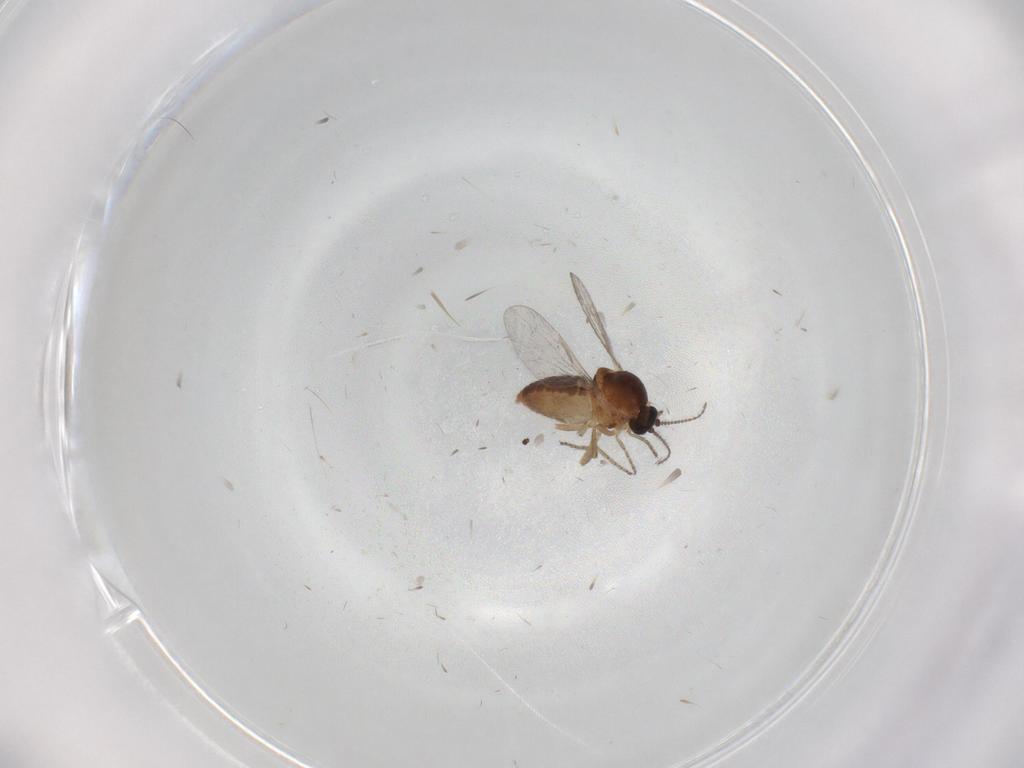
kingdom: Animalia
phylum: Arthropoda
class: Insecta
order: Diptera
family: Ceratopogonidae
